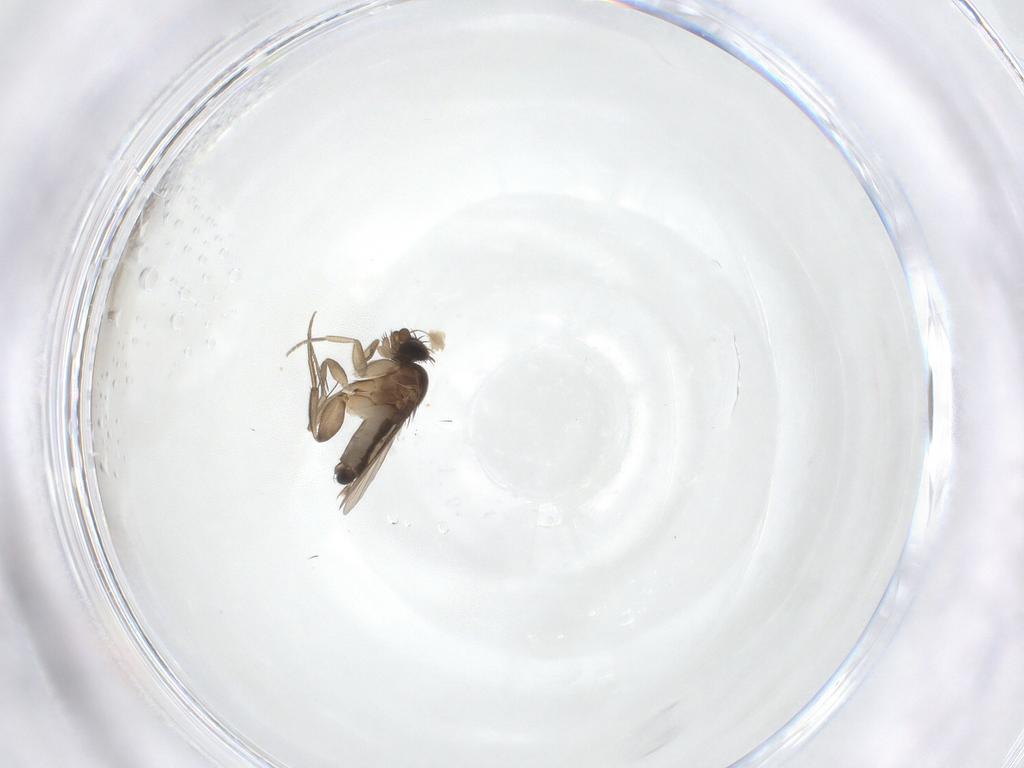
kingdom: Animalia
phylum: Arthropoda
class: Insecta
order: Diptera
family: Phoridae
